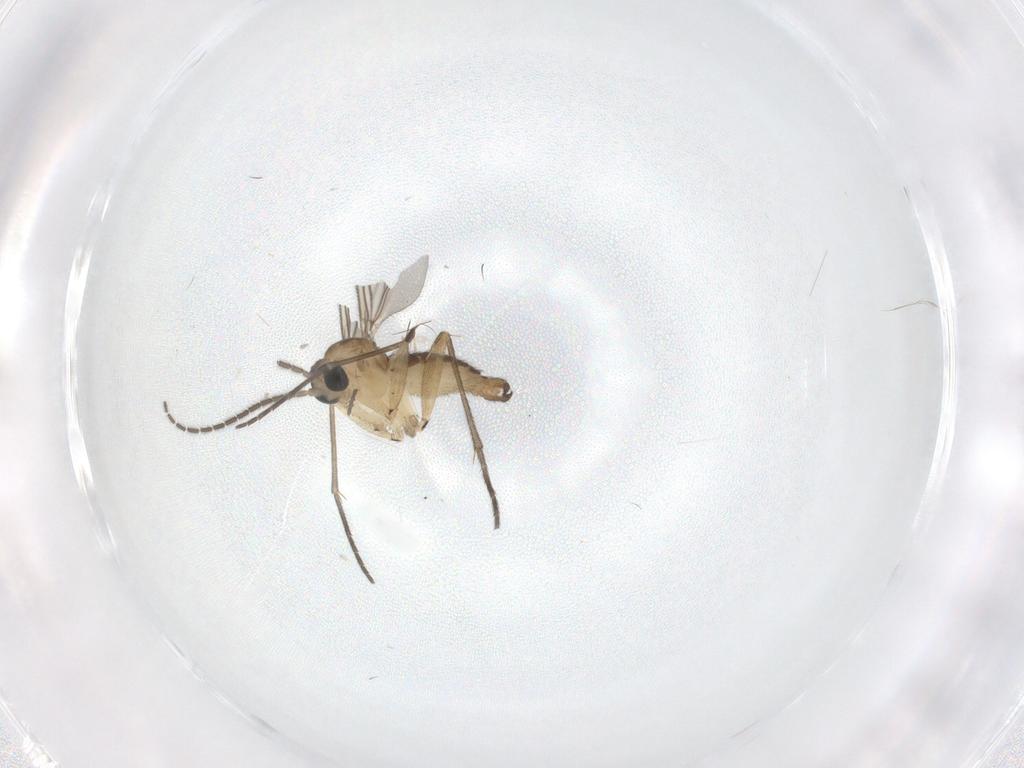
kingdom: Animalia
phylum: Arthropoda
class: Insecta
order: Diptera
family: Sciaridae
